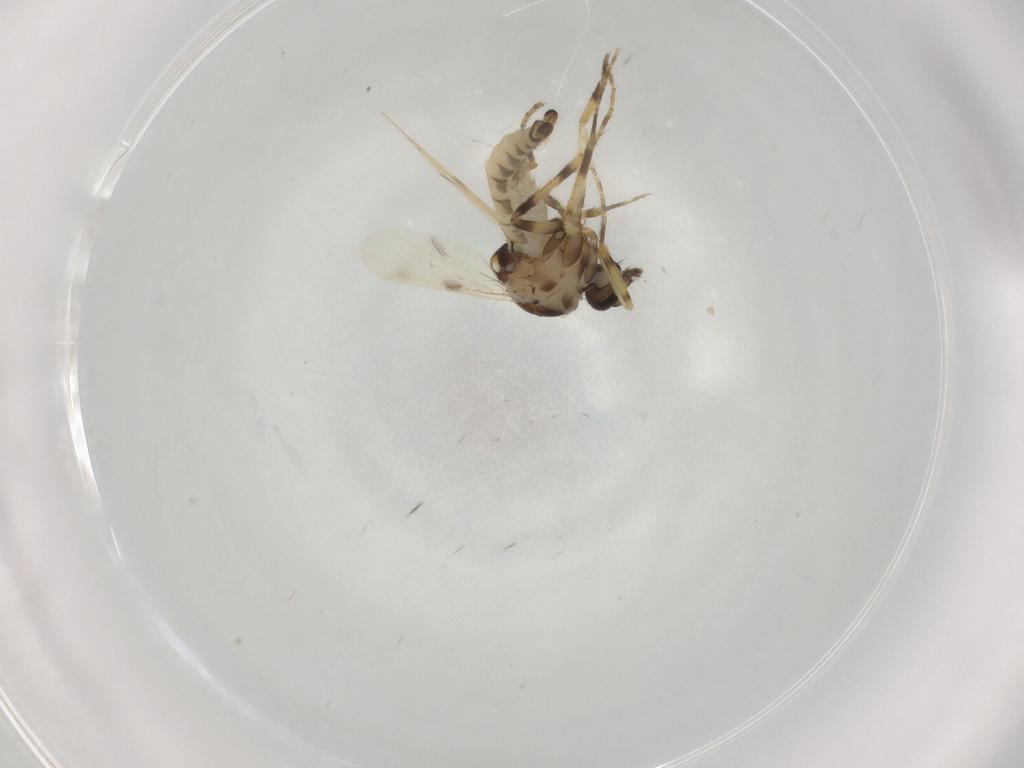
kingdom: Animalia
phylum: Arthropoda
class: Insecta
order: Diptera
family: Ceratopogonidae
